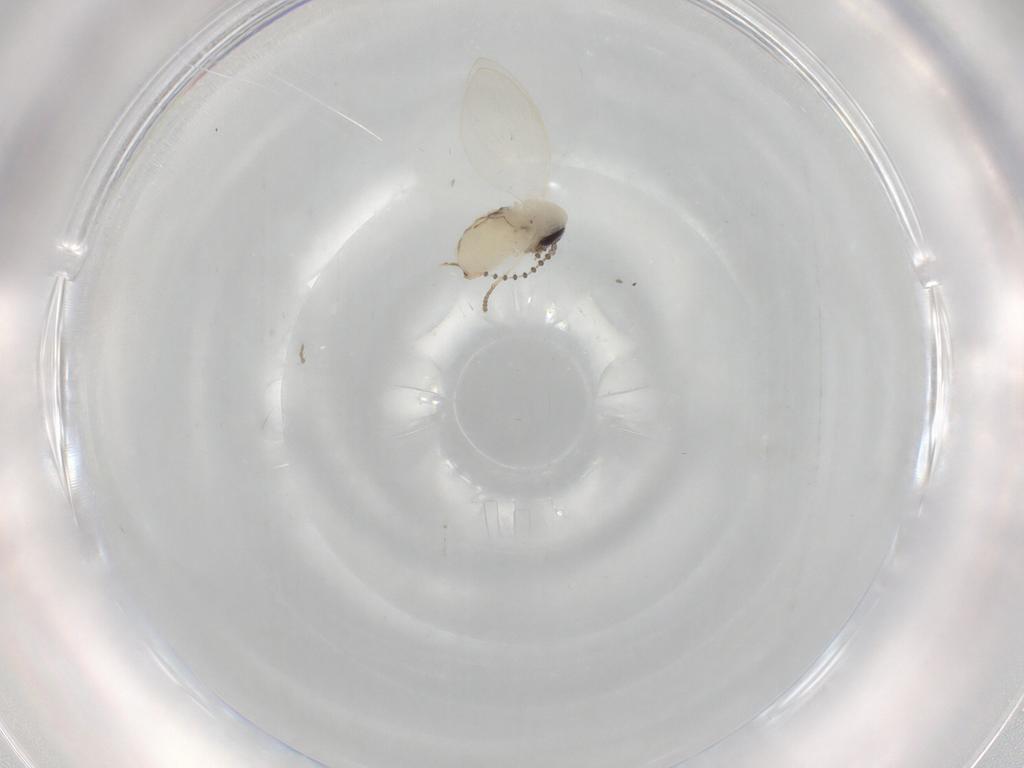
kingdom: Animalia
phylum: Arthropoda
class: Insecta
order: Diptera
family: Psychodidae
